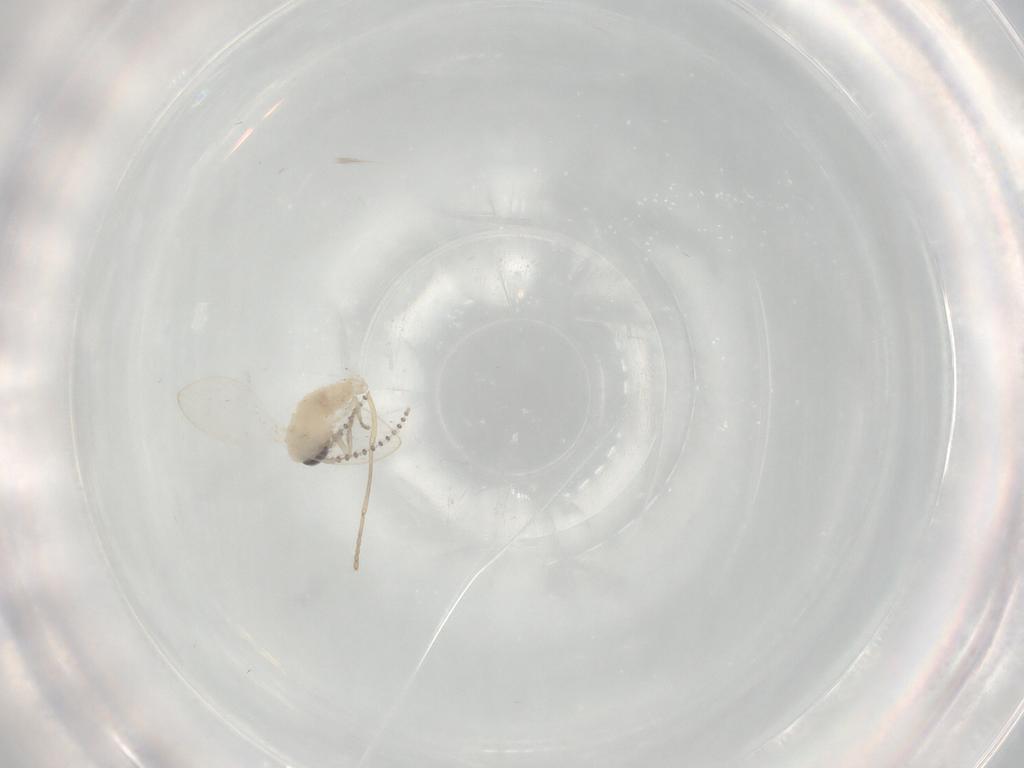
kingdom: Animalia
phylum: Arthropoda
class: Insecta
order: Diptera
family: Psychodidae
